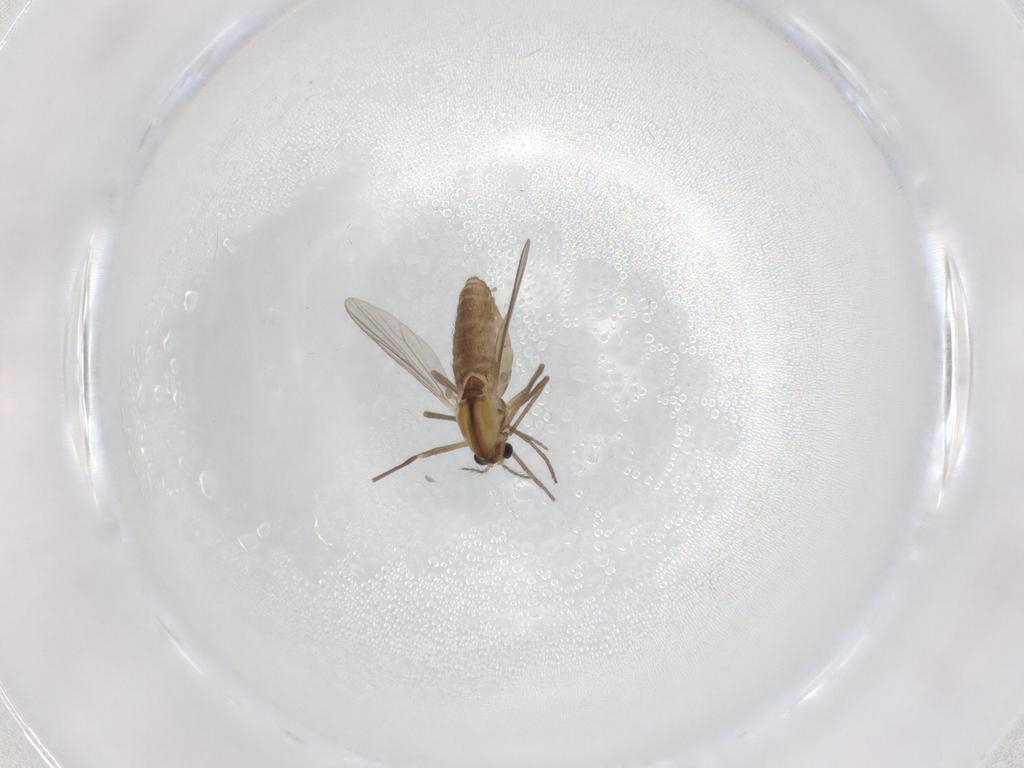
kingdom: Animalia
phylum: Arthropoda
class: Insecta
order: Diptera
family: Chironomidae
